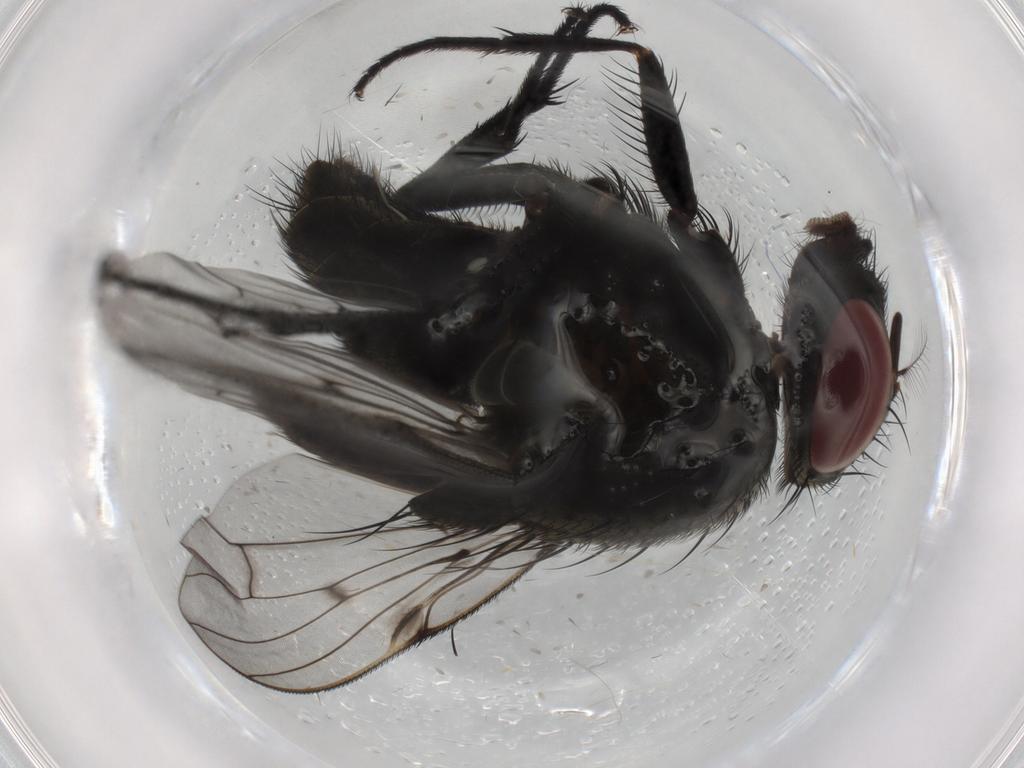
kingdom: Animalia
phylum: Arthropoda
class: Insecta
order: Diptera
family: Muscidae
